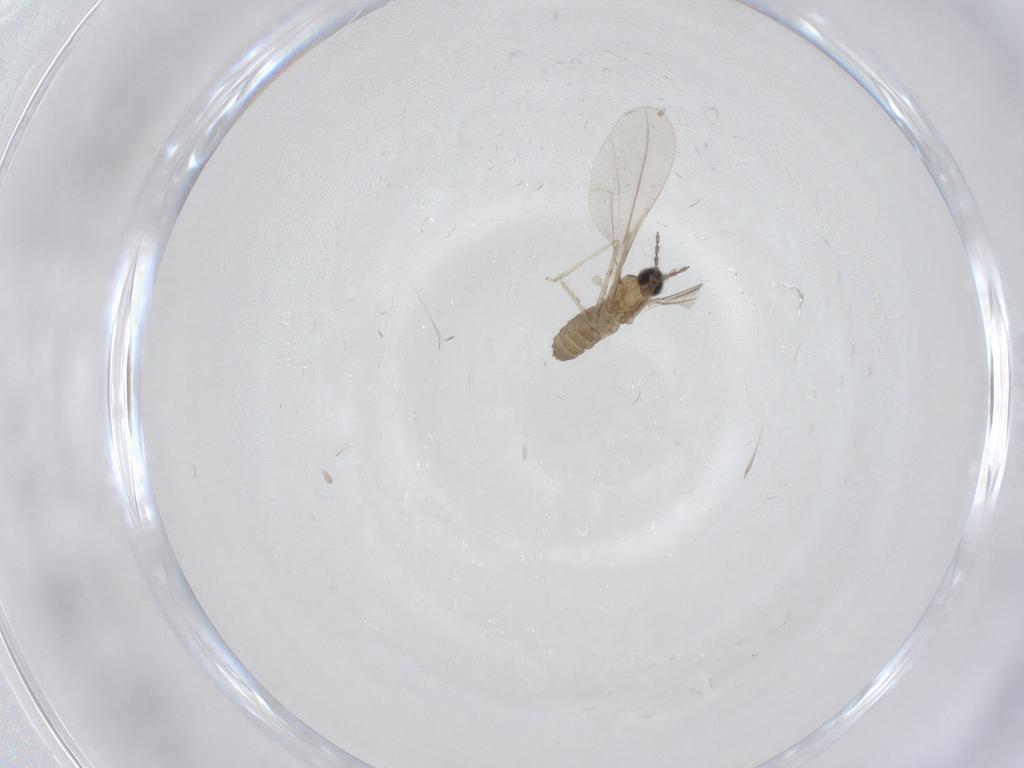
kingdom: Animalia
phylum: Arthropoda
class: Insecta
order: Diptera
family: Cecidomyiidae
